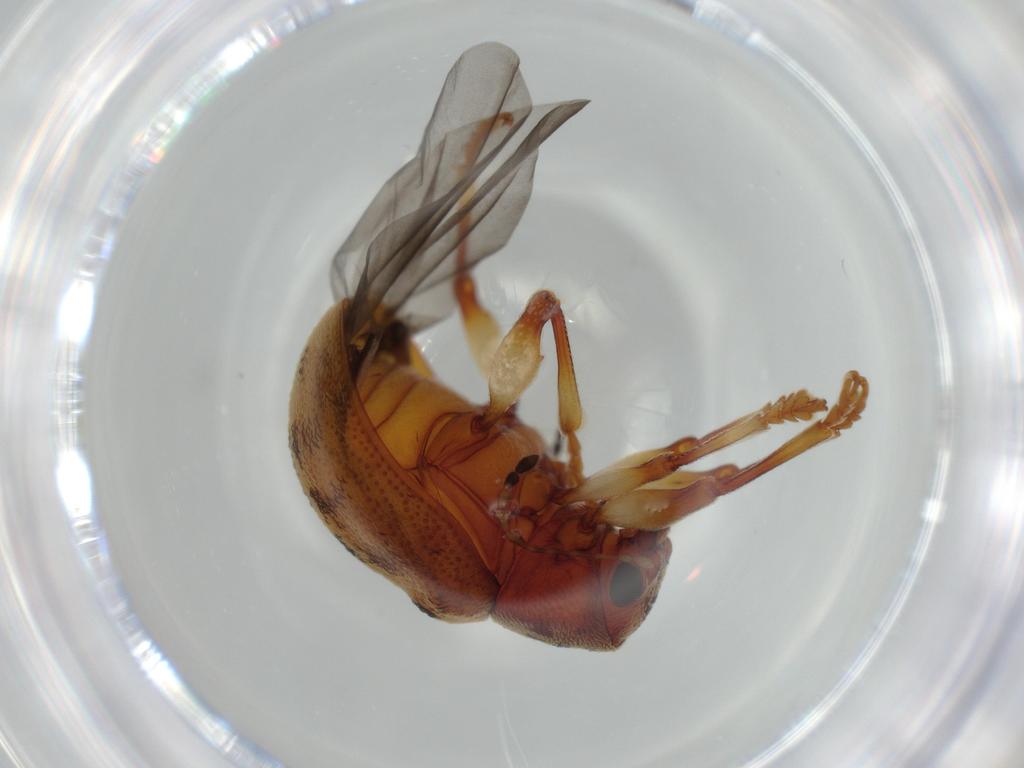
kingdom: Animalia
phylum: Arthropoda
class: Insecta
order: Coleoptera
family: Chrysomelidae
